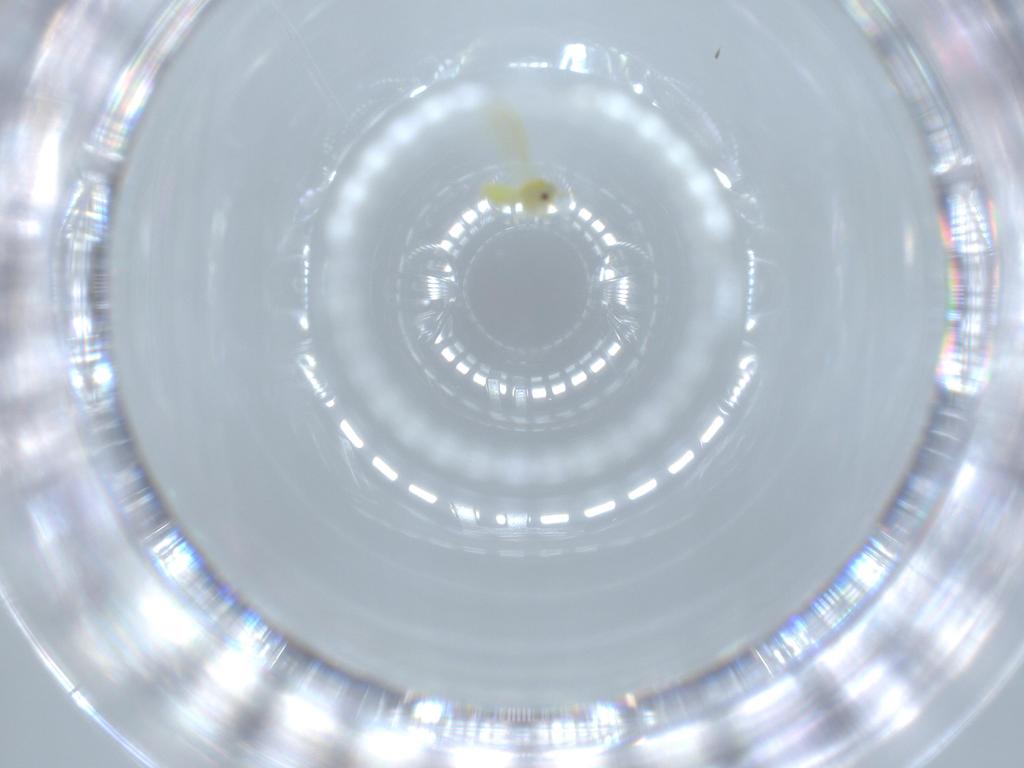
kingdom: Animalia
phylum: Arthropoda
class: Insecta
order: Hemiptera
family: Aleyrodidae
